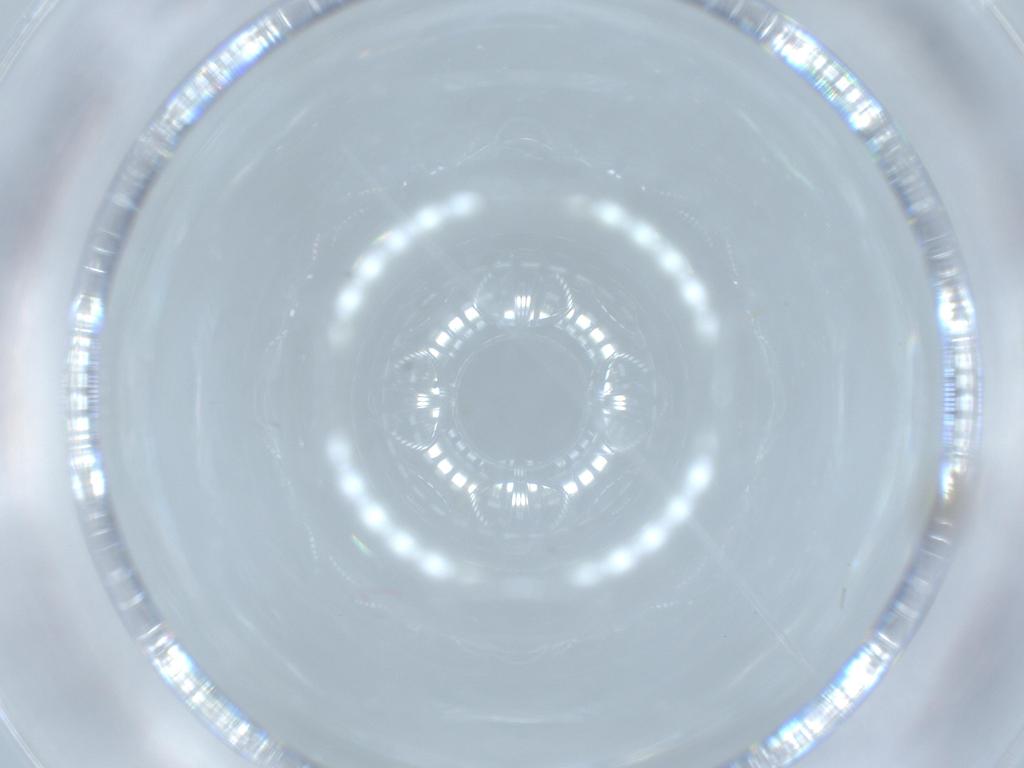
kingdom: Animalia
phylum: Arthropoda
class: Insecta
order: Diptera
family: Cecidomyiidae
